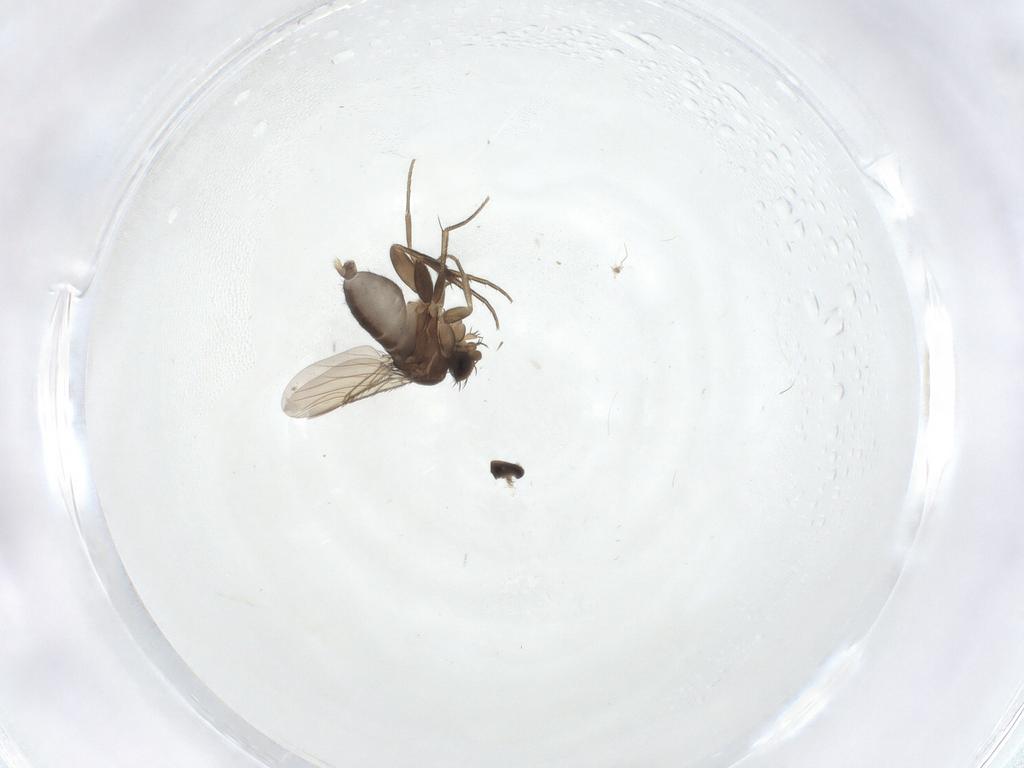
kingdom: Animalia
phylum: Arthropoda
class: Insecta
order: Diptera
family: Phoridae
